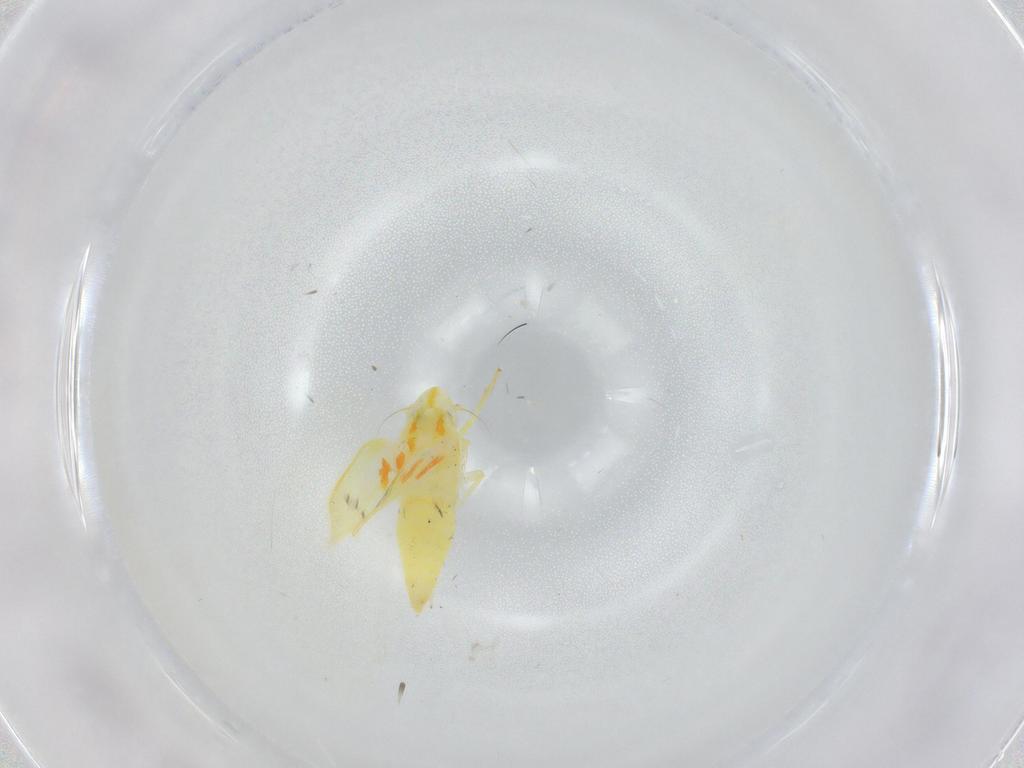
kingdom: Animalia
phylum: Arthropoda
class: Insecta
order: Hemiptera
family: Cicadellidae
